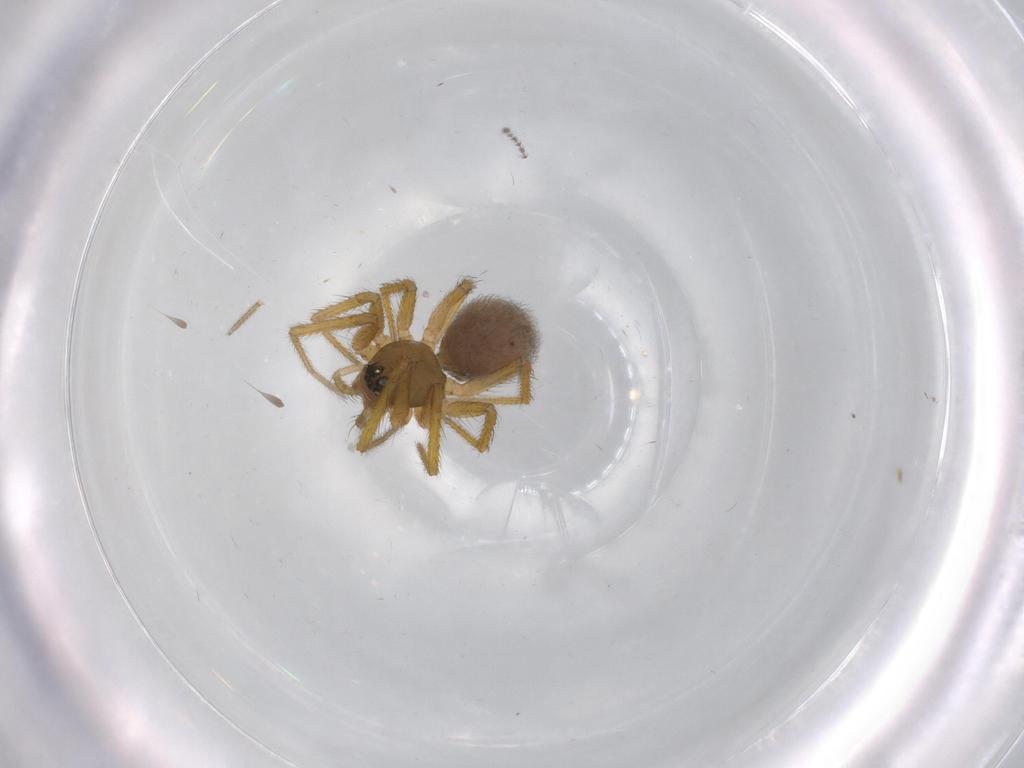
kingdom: Animalia
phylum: Arthropoda
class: Arachnida
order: Araneae
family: Linyphiidae
